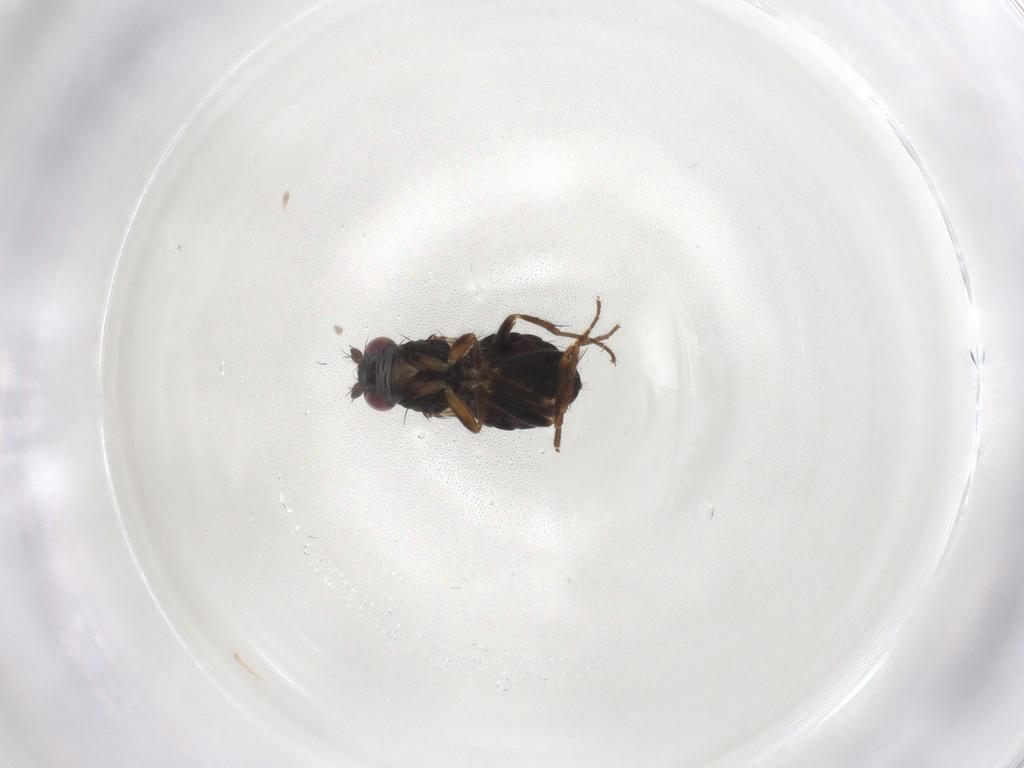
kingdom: Animalia
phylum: Arthropoda
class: Insecta
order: Diptera
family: Sphaeroceridae
